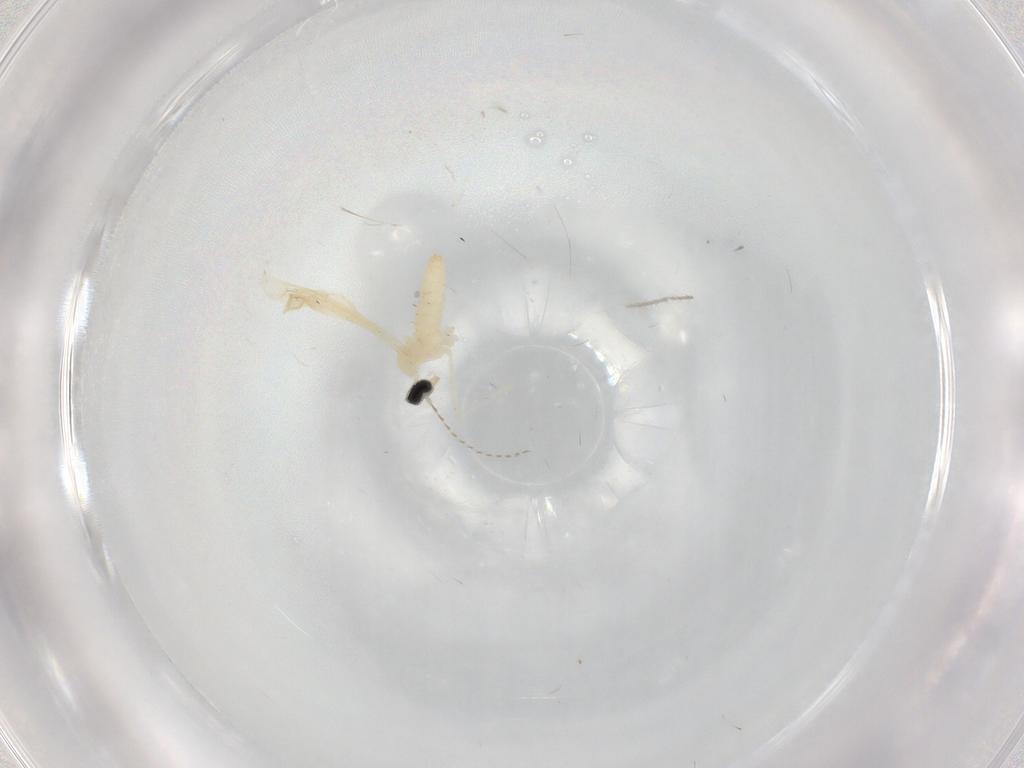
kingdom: Animalia
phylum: Arthropoda
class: Insecta
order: Diptera
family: Cecidomyiidae
